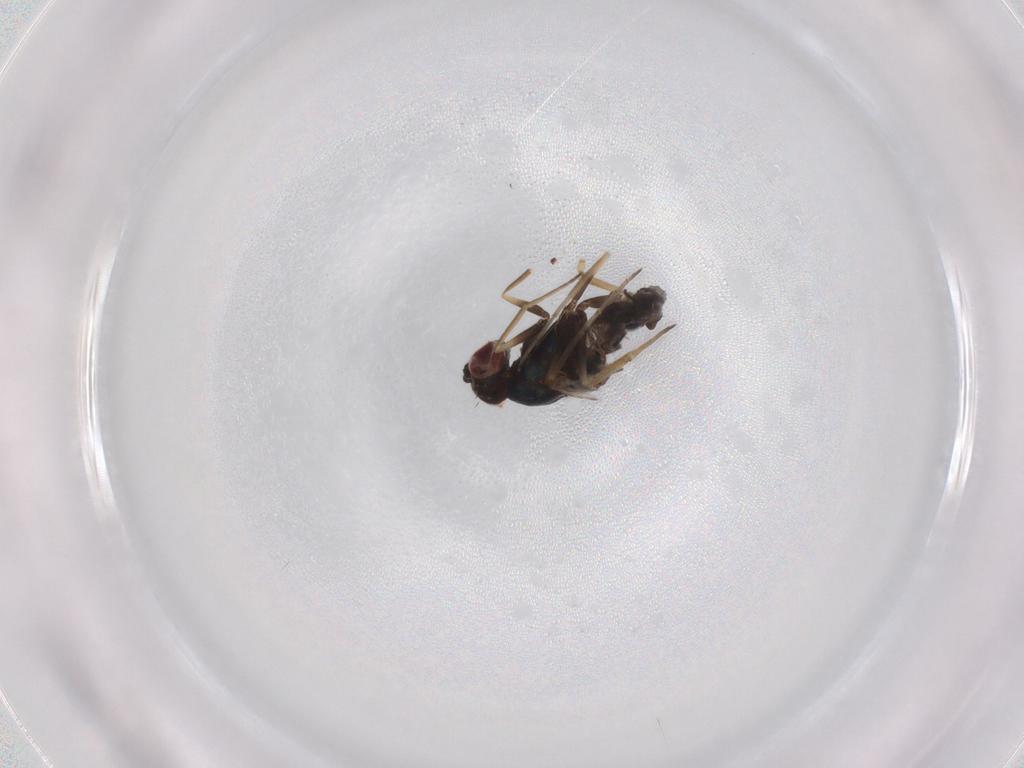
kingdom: Animalia
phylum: Arthropoda
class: Insecta
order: Diptera
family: Dolichopodidae
